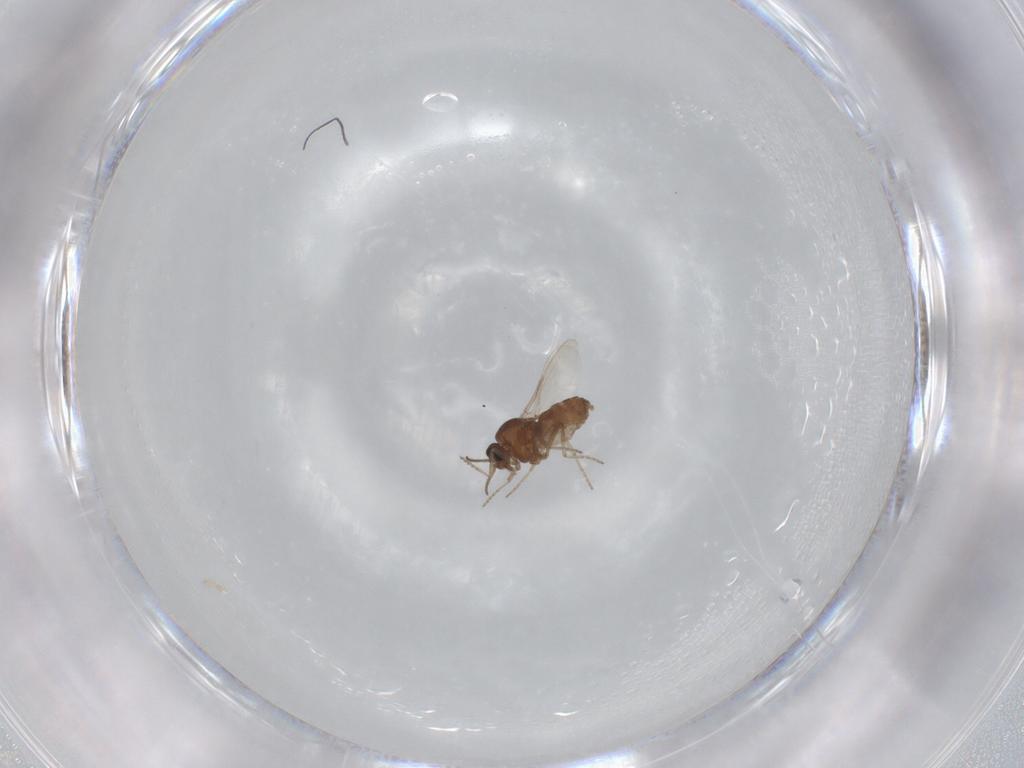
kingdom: Animalia
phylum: Arthropoda
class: Insecta
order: Diptera
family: Ceratopogonidae
